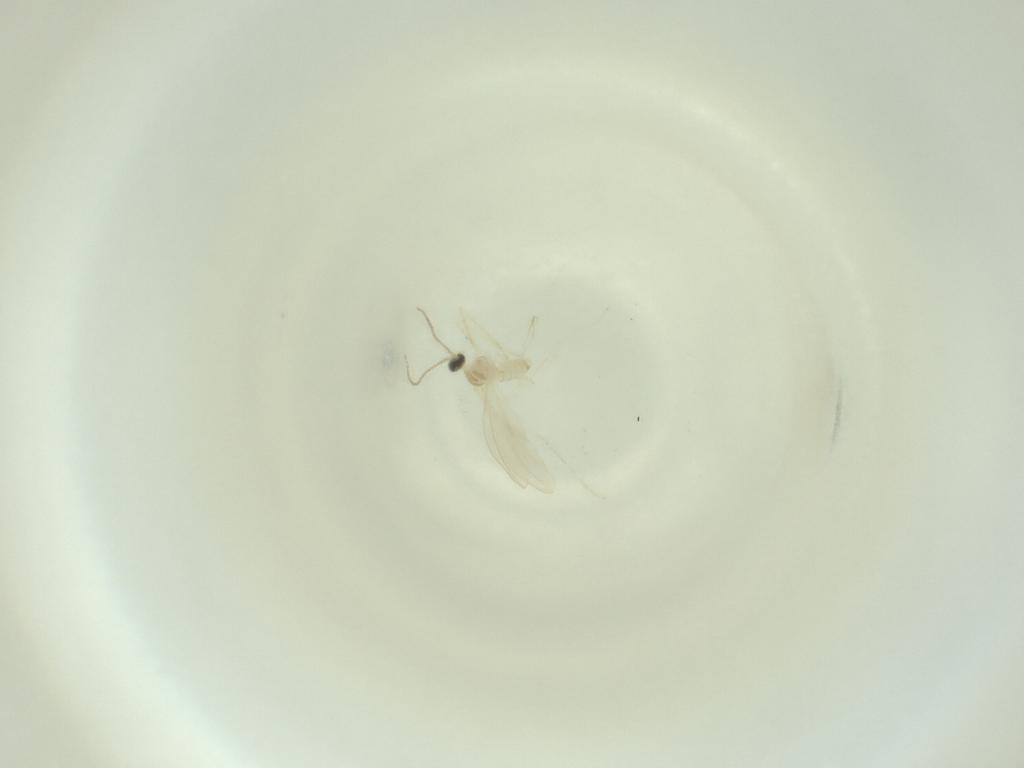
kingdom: Animalia
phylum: Arthropoda
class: Insecta
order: Diptera
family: Cecidomyiidae
